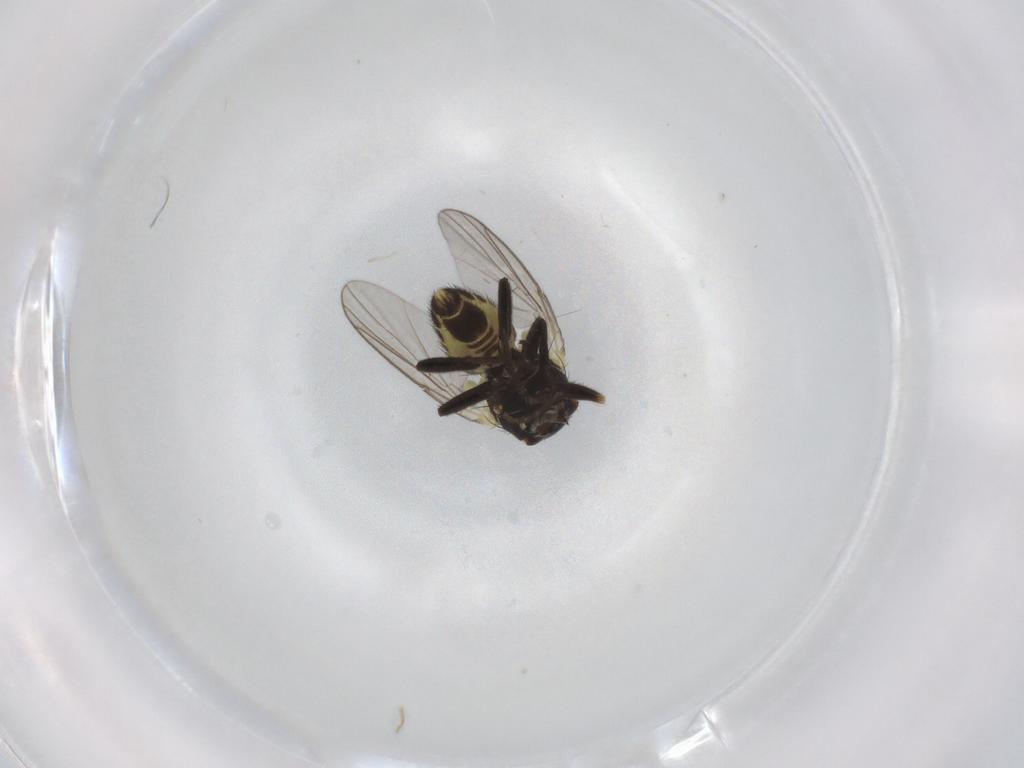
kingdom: Animalia
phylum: Arthropoda
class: Insecta
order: Diptera
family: Agromyzidae
